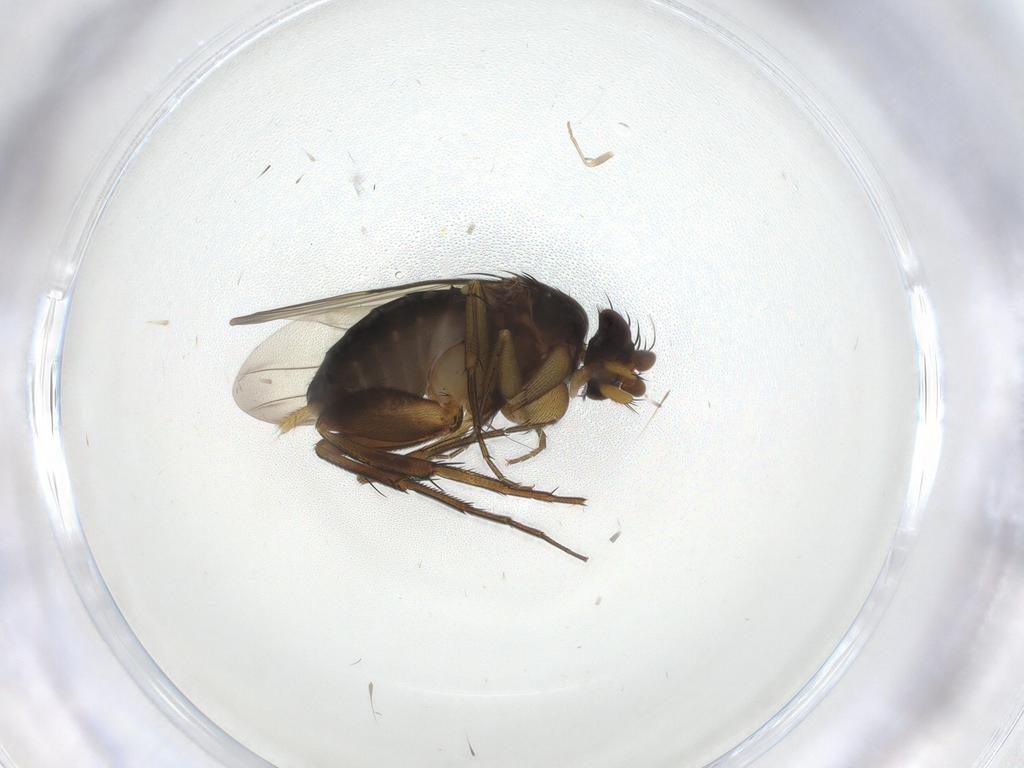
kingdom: Animalia
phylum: Arthropoda
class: Insecta
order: Diptera
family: Phoridae
